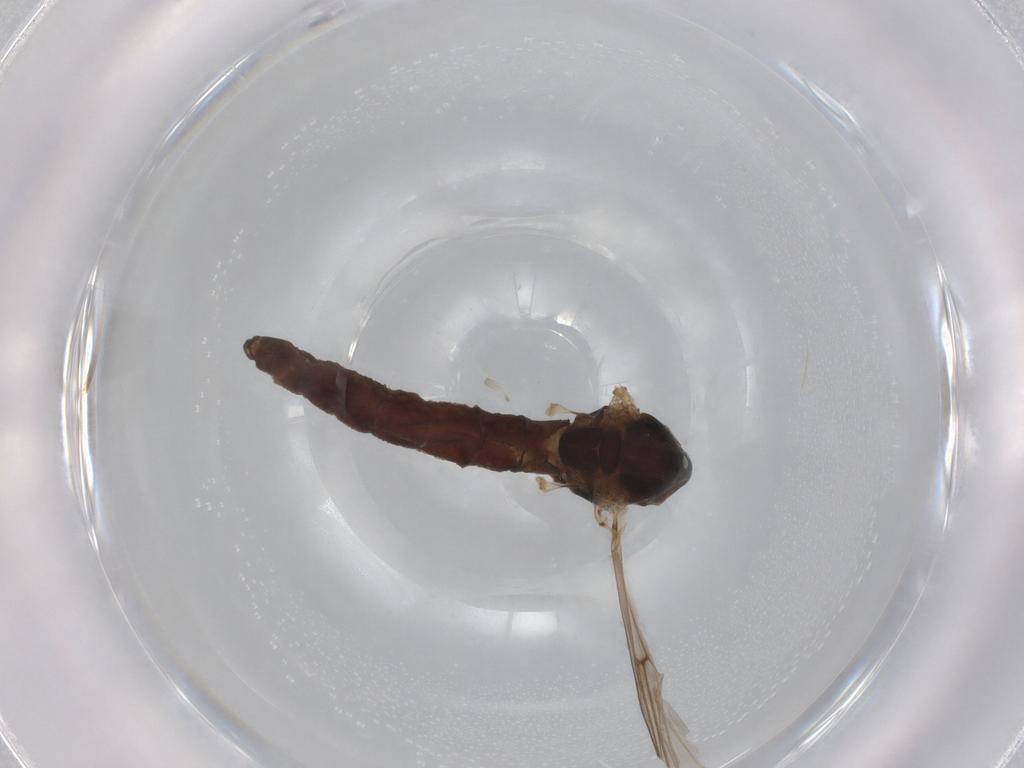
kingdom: Animalia
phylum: Arthropoda
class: Insecta
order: Diptera
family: Chironomidae
